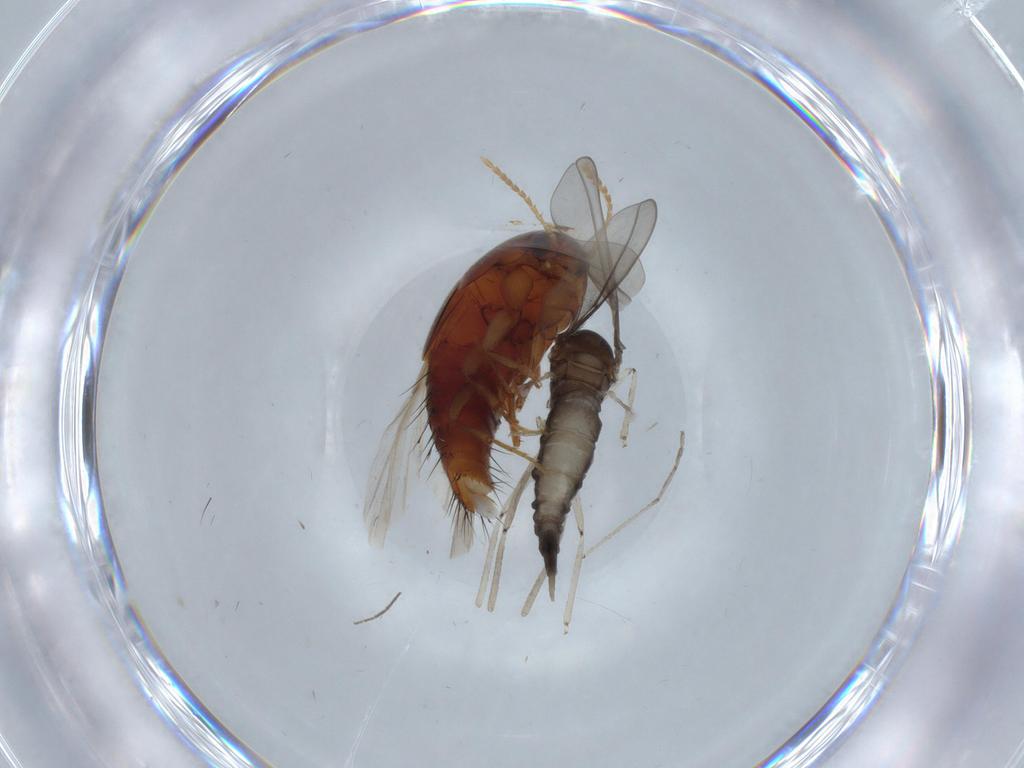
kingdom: Animalia
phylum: Arthropoda
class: Insecta
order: Coleoptera
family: Staphylinidae
